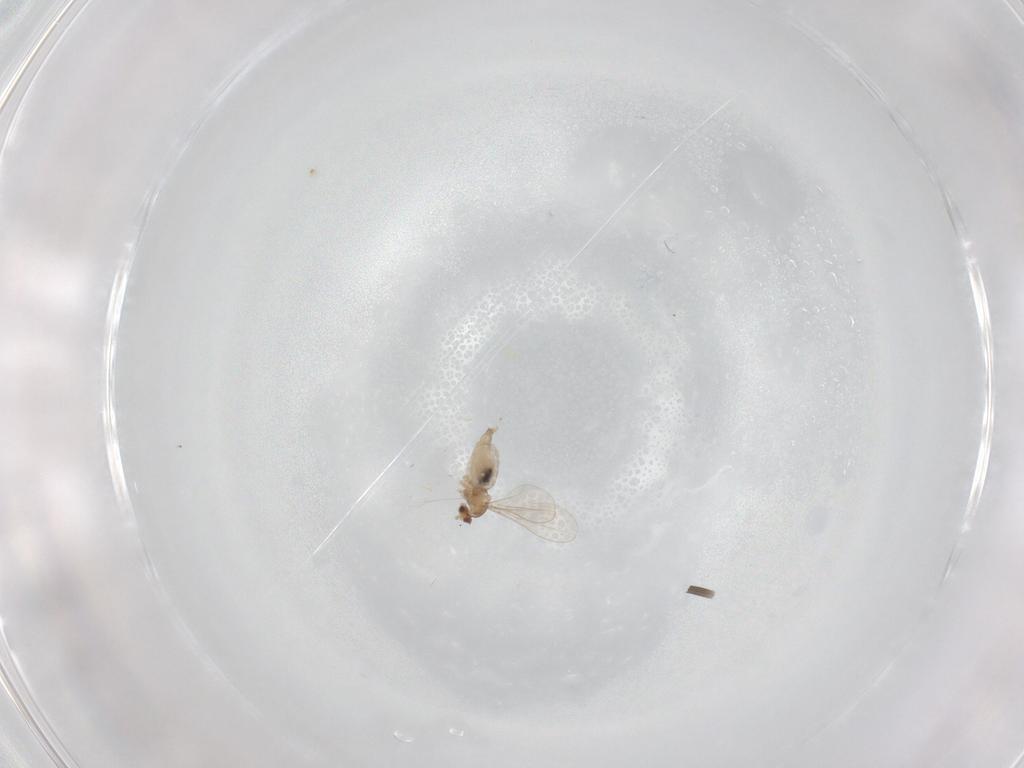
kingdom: Animalia
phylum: Arthropoda
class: Insecta
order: Diptera
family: Cecidomyiidae
